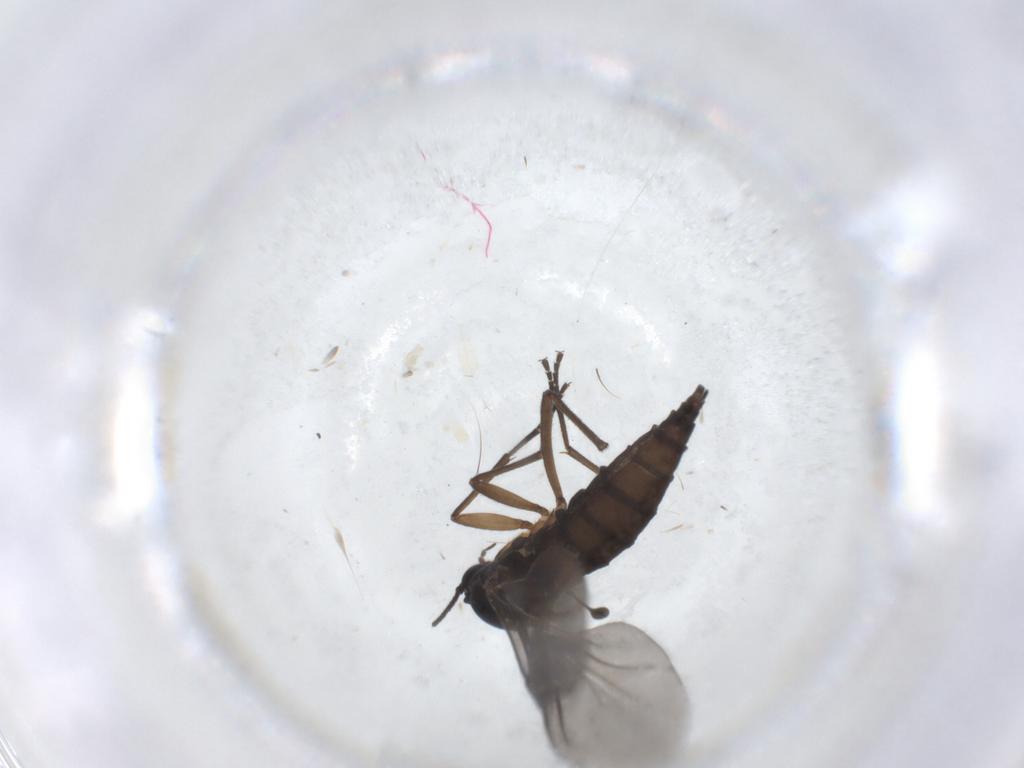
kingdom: Animalia
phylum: Arthropoda
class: Insecta
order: Diptera
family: Sciaridae
